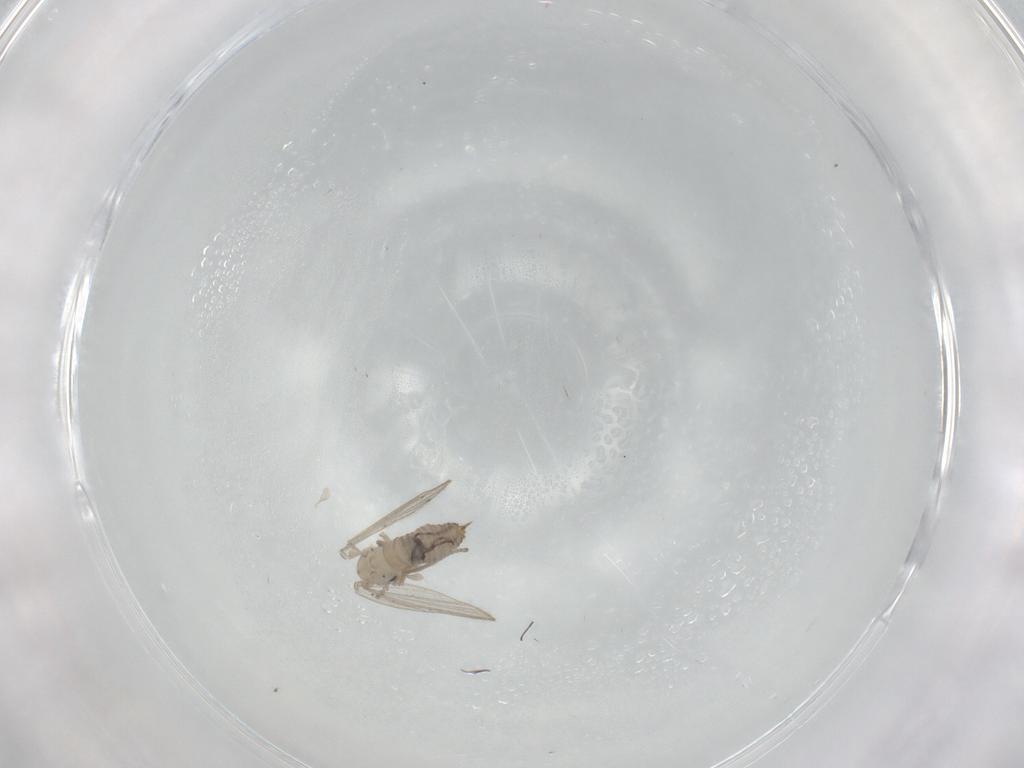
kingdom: Animalia
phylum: Arthropoda
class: Insecta
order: Diptera
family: Psychodidae
